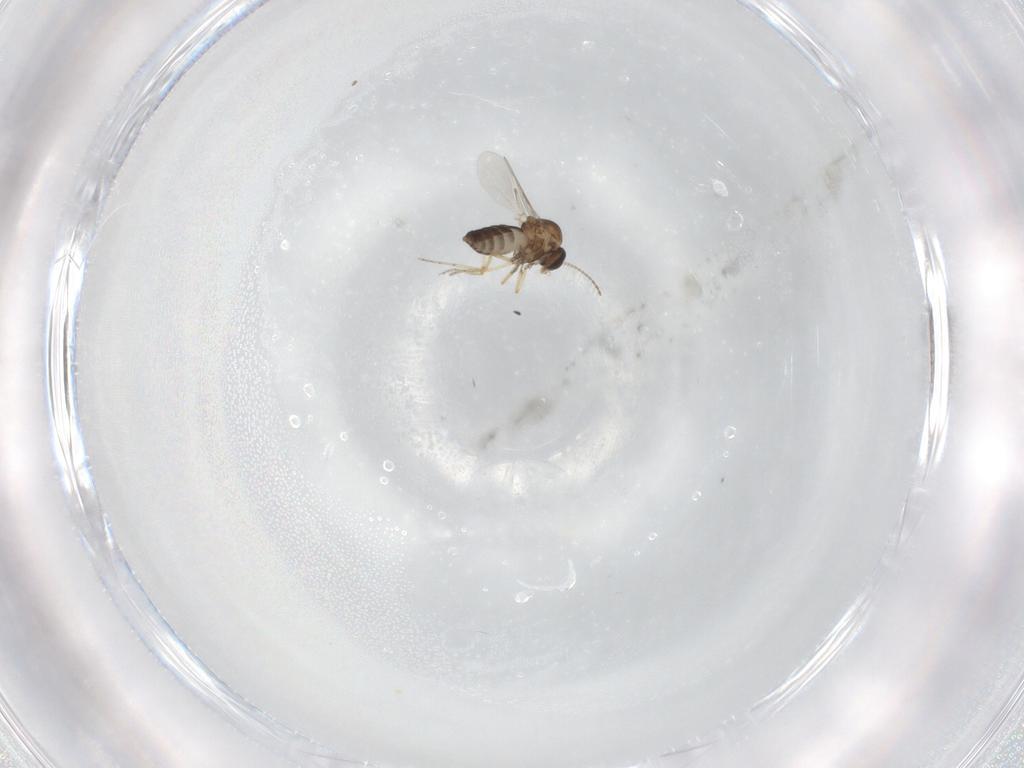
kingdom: Animalia
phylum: Arthropoda
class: Insecta
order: Diptera
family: Ceratopogonidae
